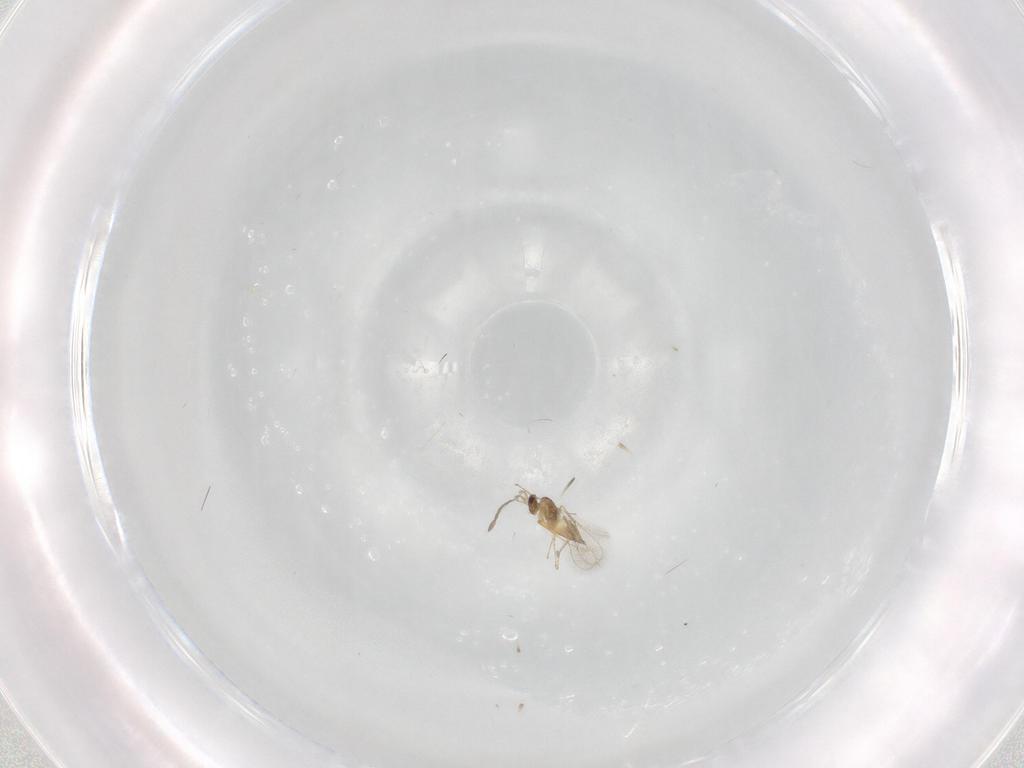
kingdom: Animalia
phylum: Arthropoda
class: Insecta
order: Hymenoptera
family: Mymaridae
